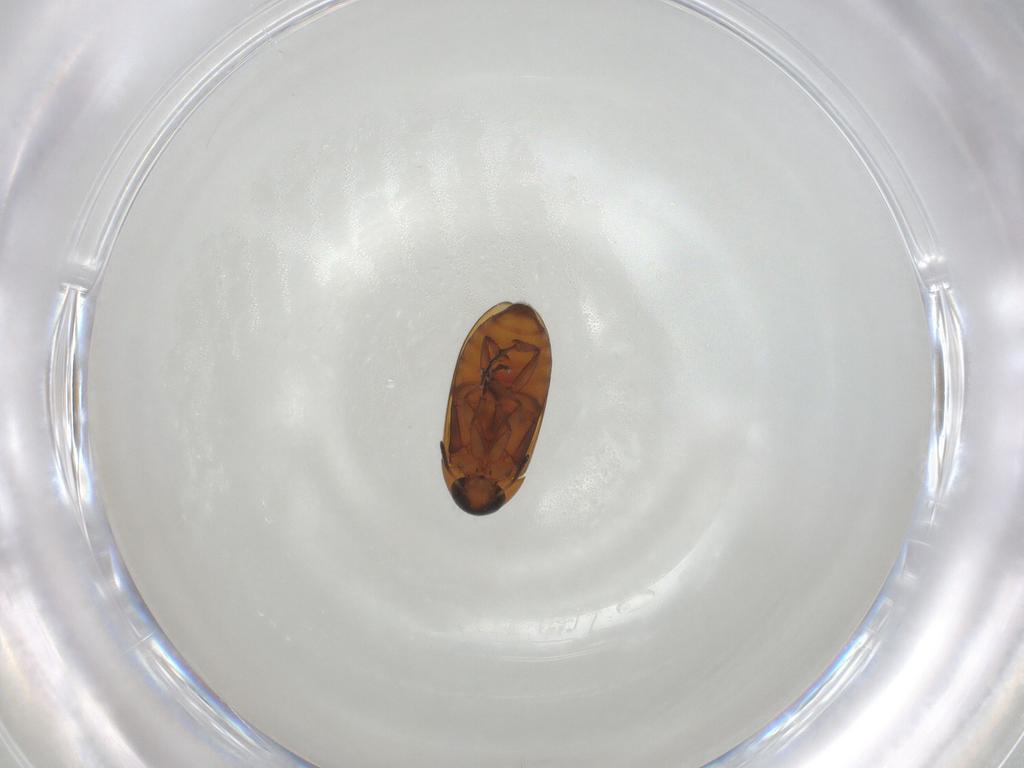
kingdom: Animalia
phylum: Arthropoda
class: Insecta
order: Coleoptera
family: Scraptiidae
